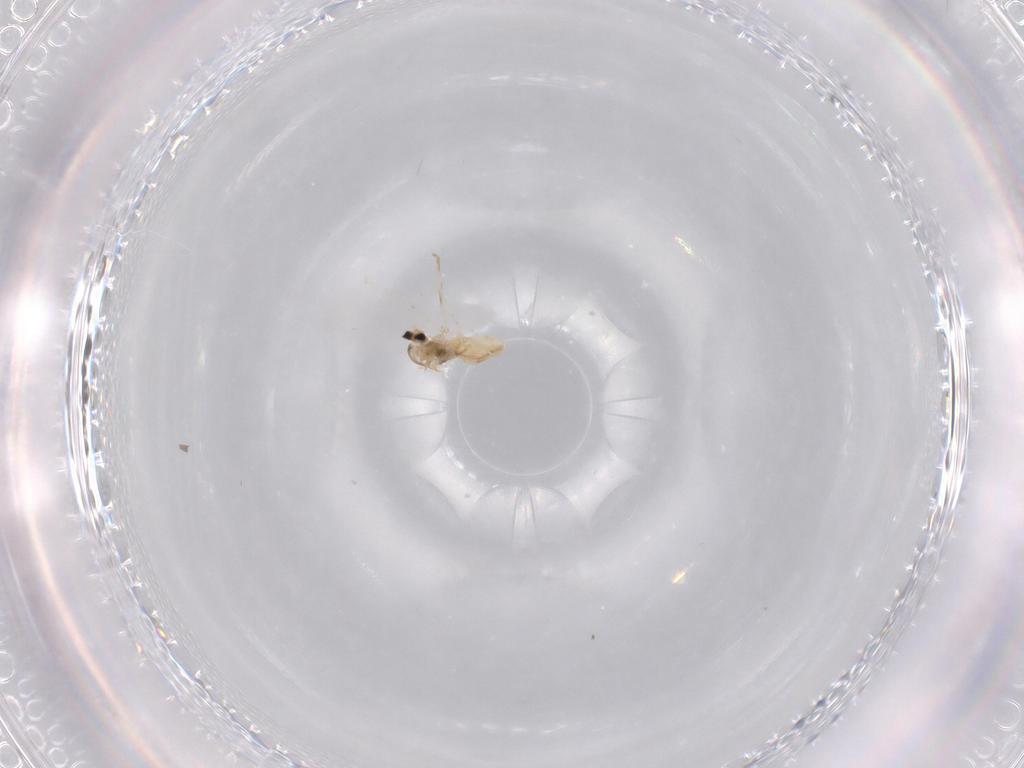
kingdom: Animalia
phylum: Arthropoda
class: Insecta
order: Diptera
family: Cecidomyiidae
